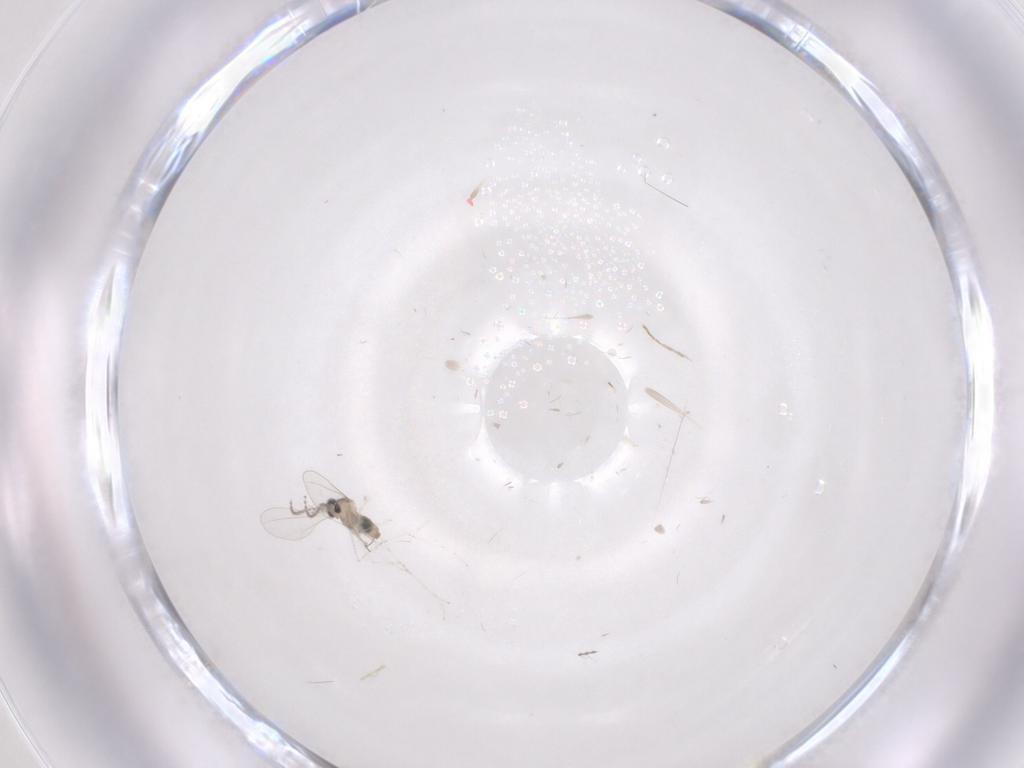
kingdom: Animalia
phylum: Arthropoda
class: Insecta
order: Diptera
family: Cecidomyiidae
